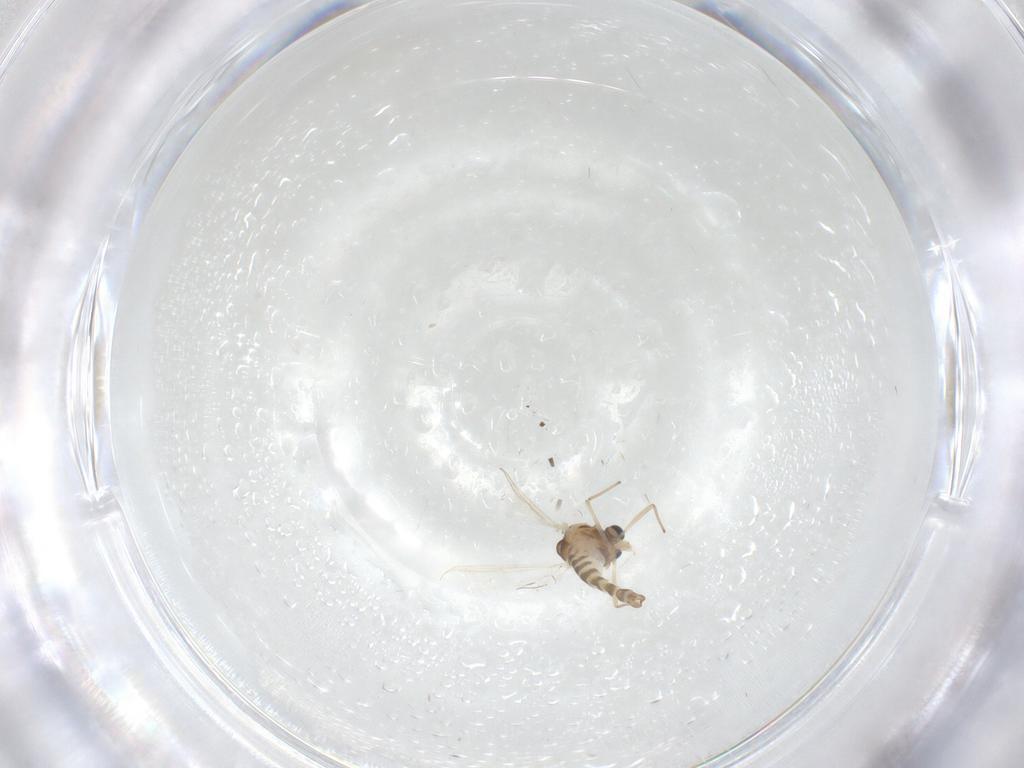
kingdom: Animalia
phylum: Arthropoda
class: Insecta
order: Diptera
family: Chironomidae
